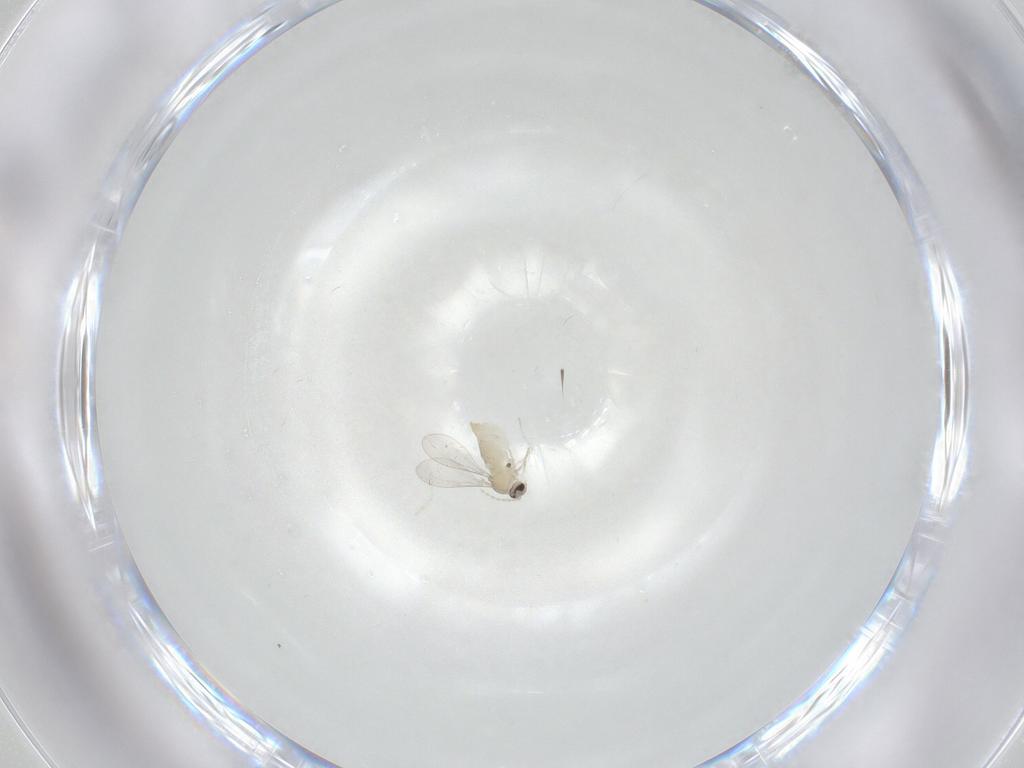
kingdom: Animalia
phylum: Arthropoda
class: Insecta
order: Diptera
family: Cecidomyiidae
